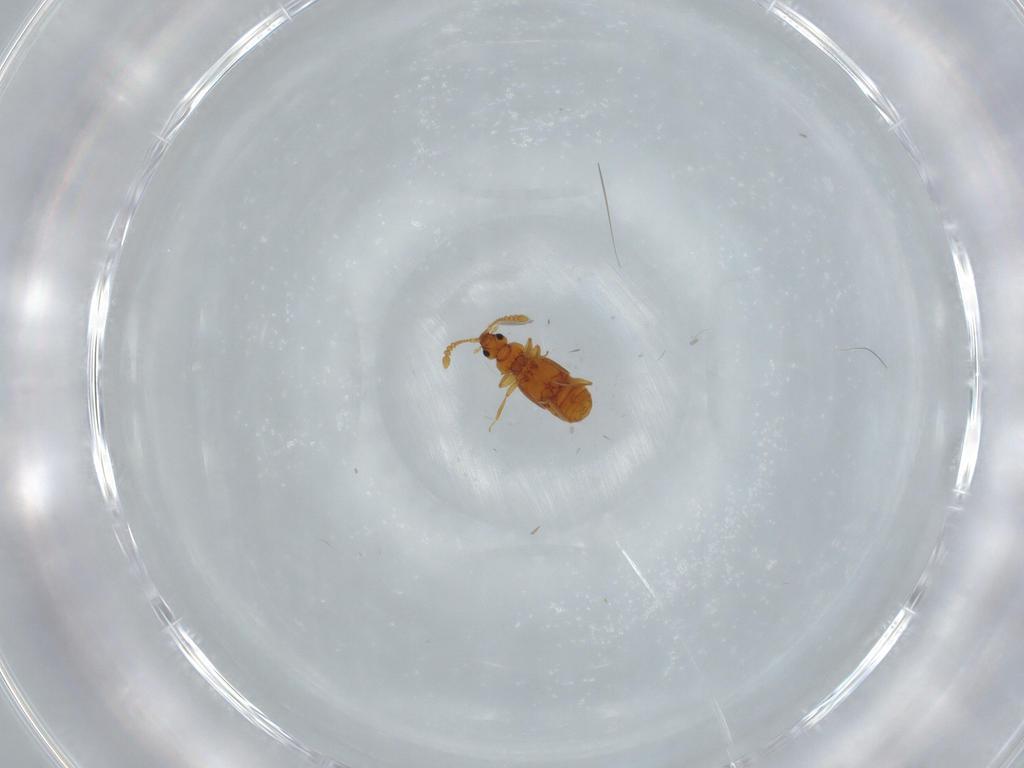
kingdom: Animalia
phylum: Arthropoda
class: Insecta
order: Coleoptera
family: Staphylinidae
